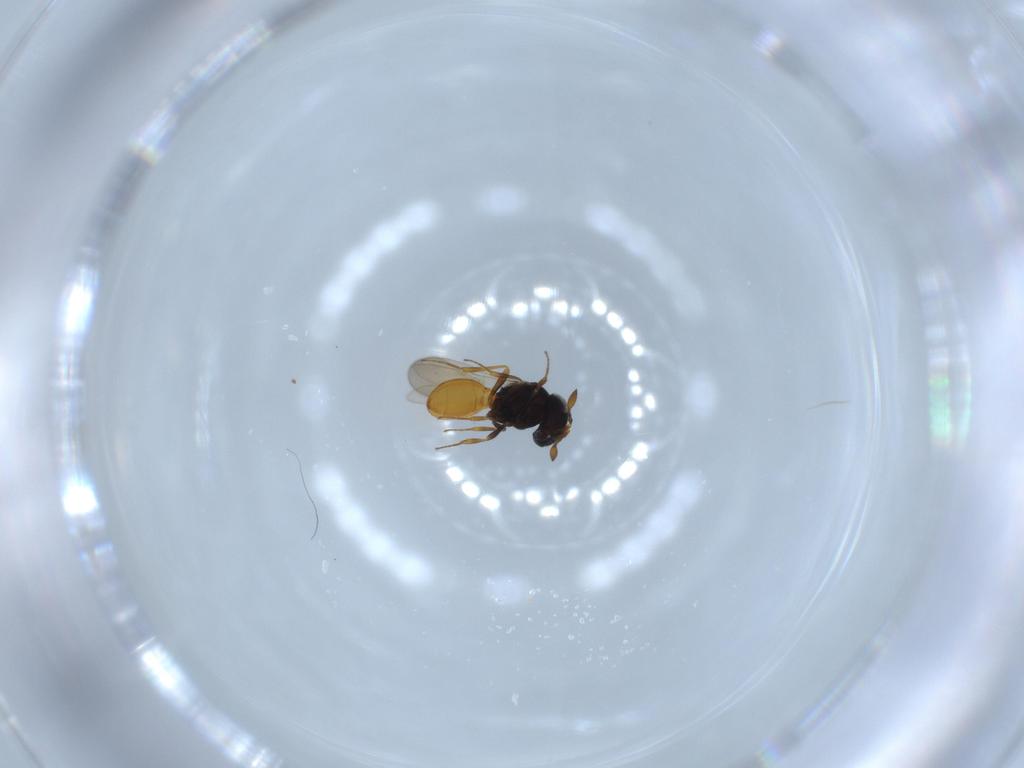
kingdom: Animalia
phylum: Arthropoda
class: Insecta
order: Hymenoptera
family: Scelionidae
